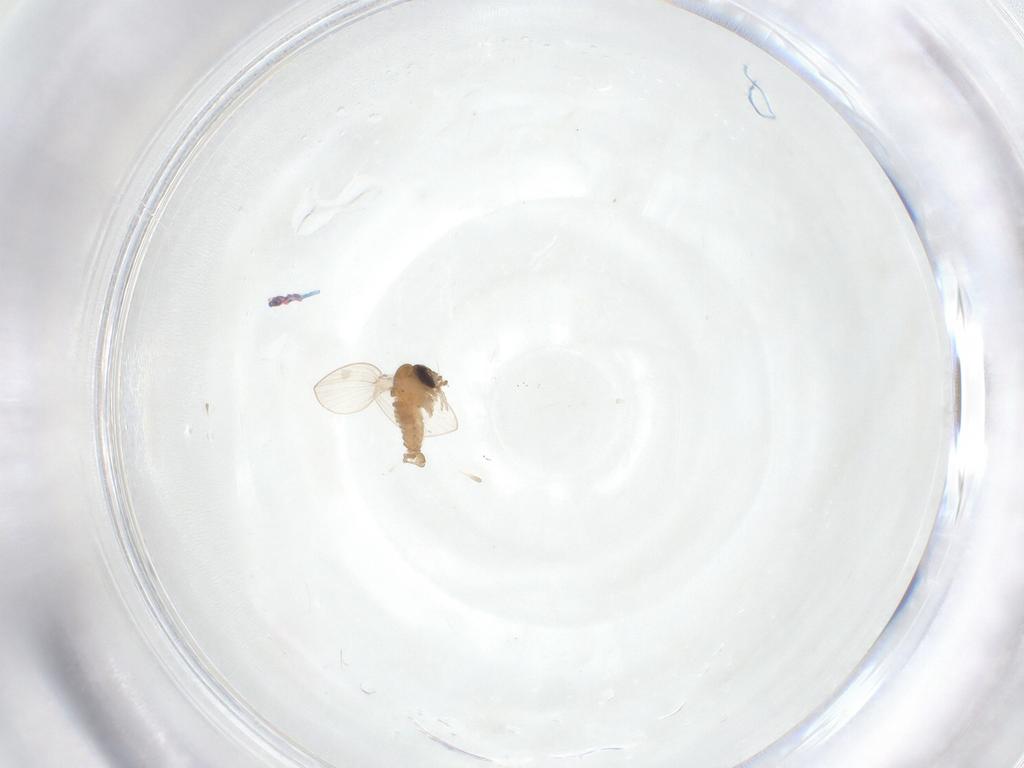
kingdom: Animalia
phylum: Arthropoda
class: Insecta
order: Diptera
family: Psychodidae
